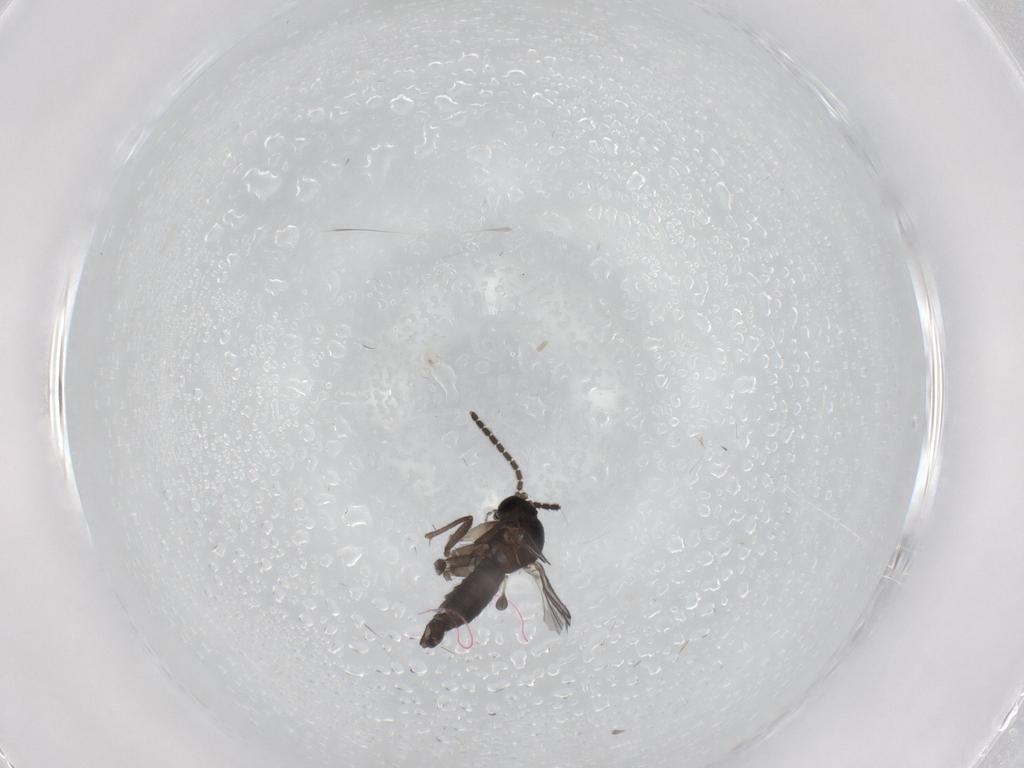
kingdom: Animalia
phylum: Arthropoda
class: Insecta
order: Diptera
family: Sciaridae
